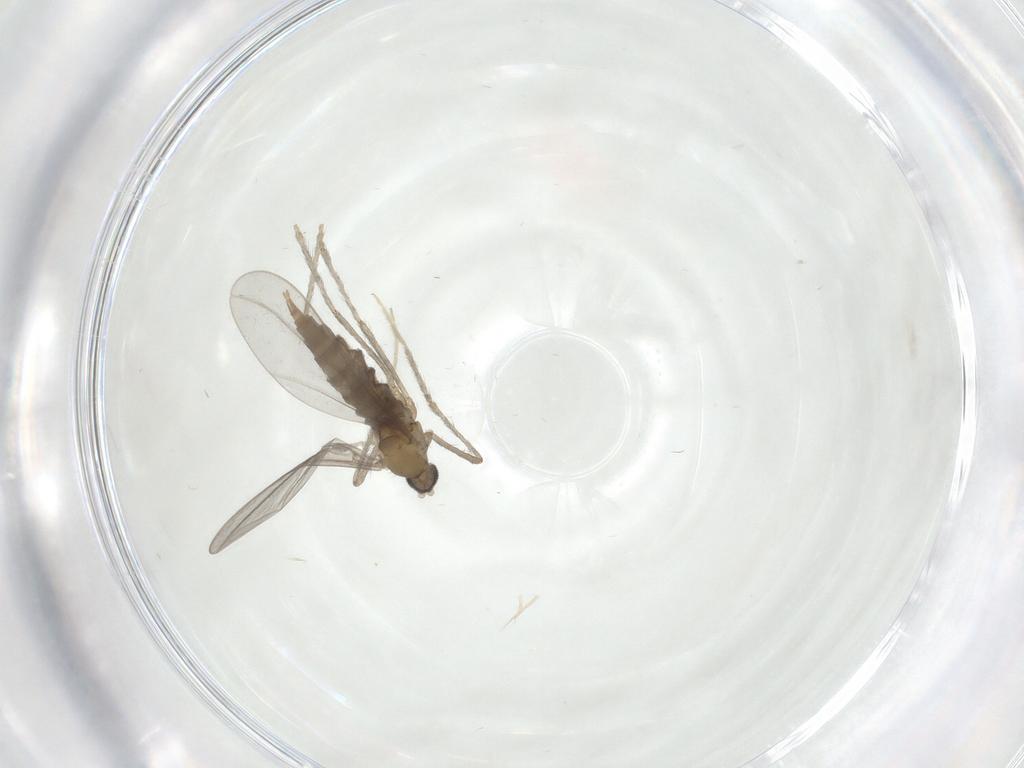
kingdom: Animalia
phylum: Arthropoda
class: Insecta
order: Diptera
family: Cecidomyiidae
